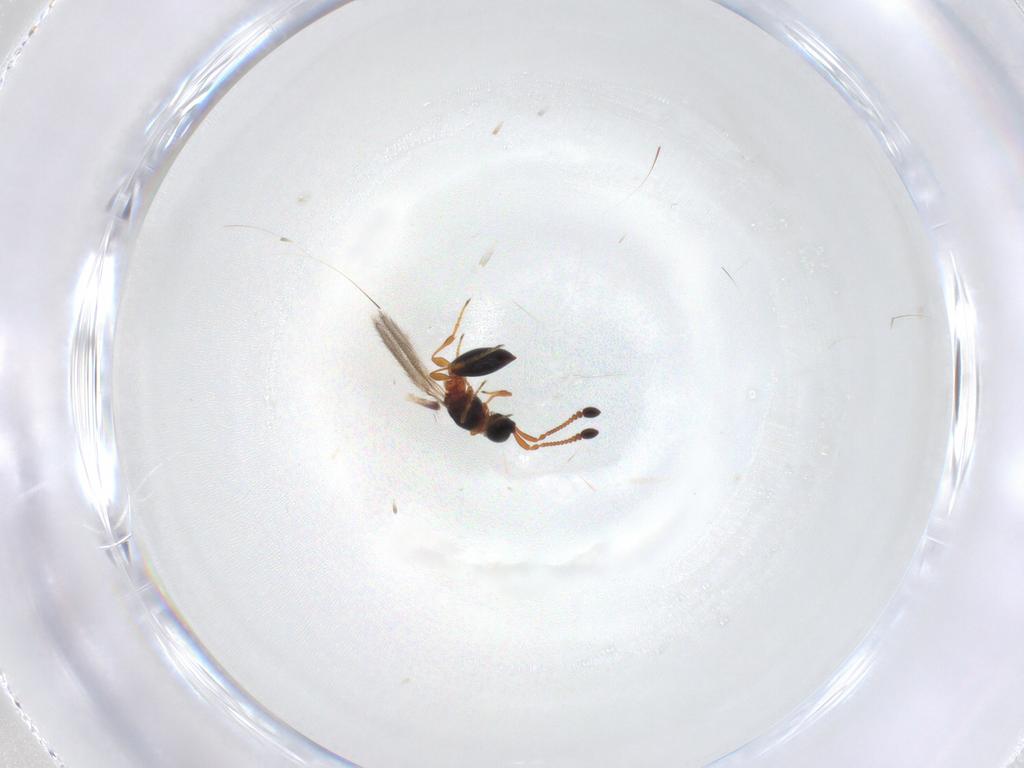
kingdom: Animalia
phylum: Arthropoda
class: Insecta
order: Hymenoptera
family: Diapriidae
